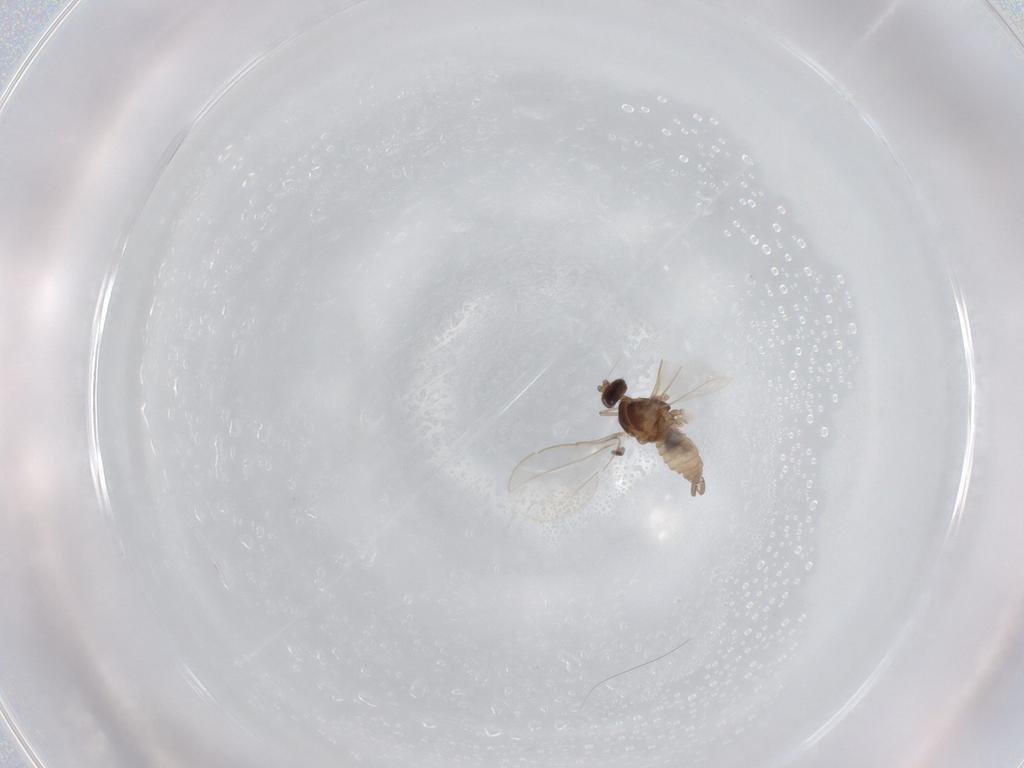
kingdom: Animalia
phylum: Arthropoda
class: Insecta
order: Diptera
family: Cecidomyiidae
